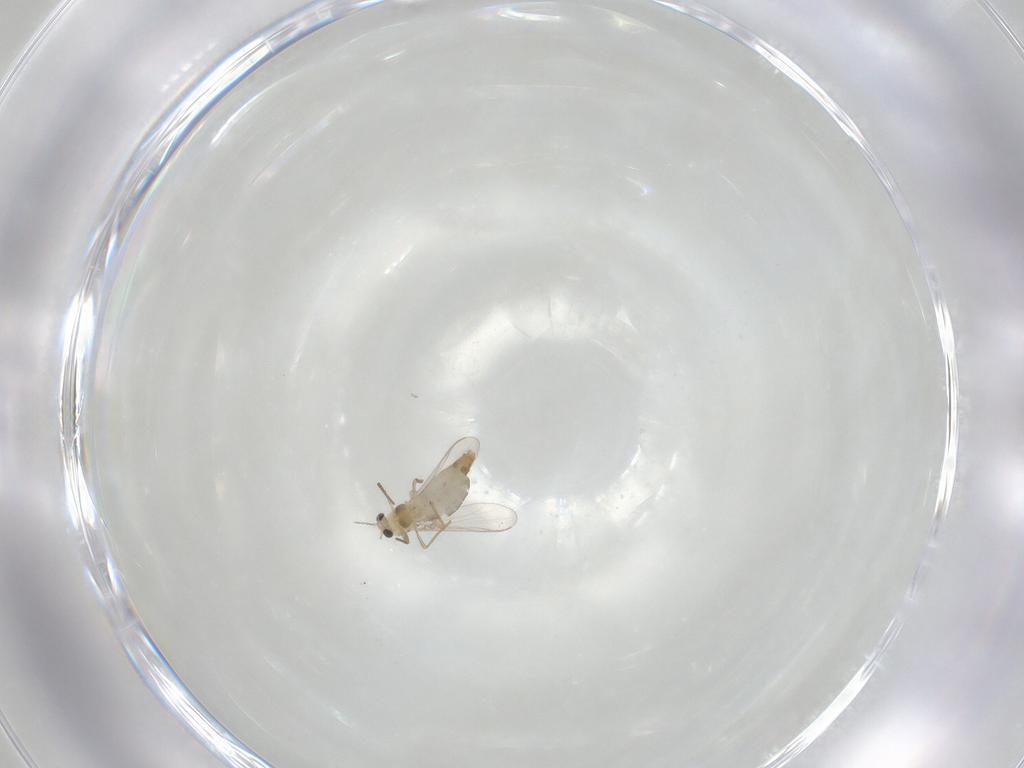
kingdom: Animalia
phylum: Arthropoda
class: Insecta
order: Diptera
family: Chironomidae
